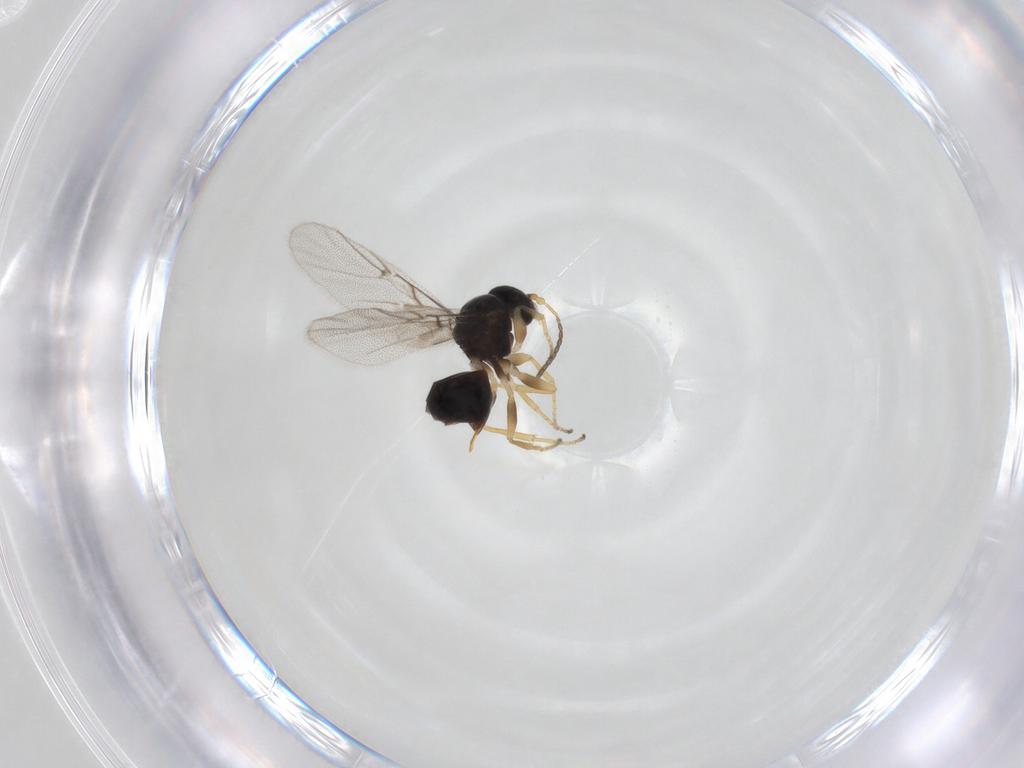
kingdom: Animalia
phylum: Arthropoda
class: Insecta
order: Hymenoptera
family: Cynipidae
